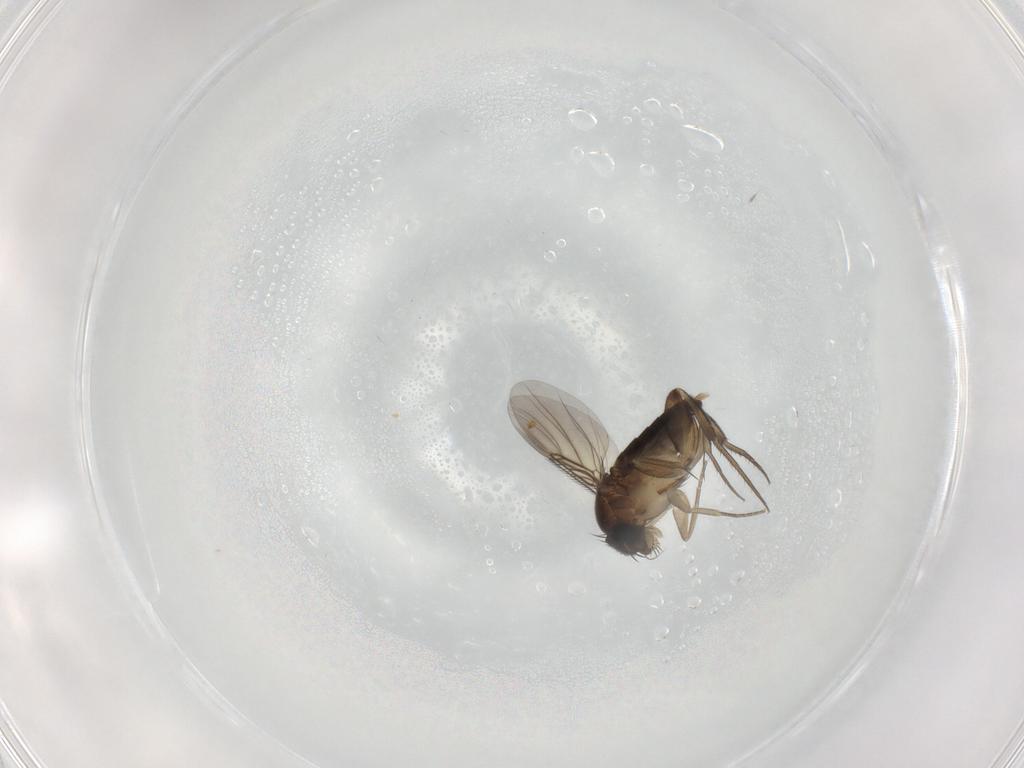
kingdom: Animalia
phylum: Arthropoda
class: Insecta
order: Diptera
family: Phoridae
